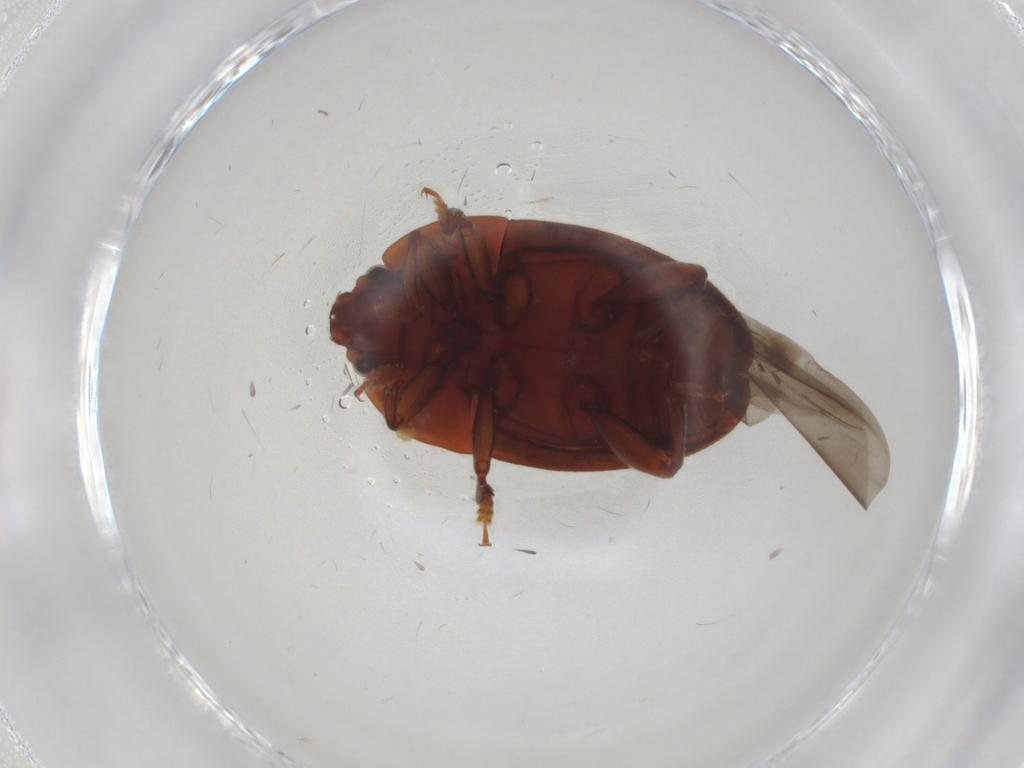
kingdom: Animalia
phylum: Arthropoda
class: Insecta
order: Coleoptera
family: Nitidulidae
